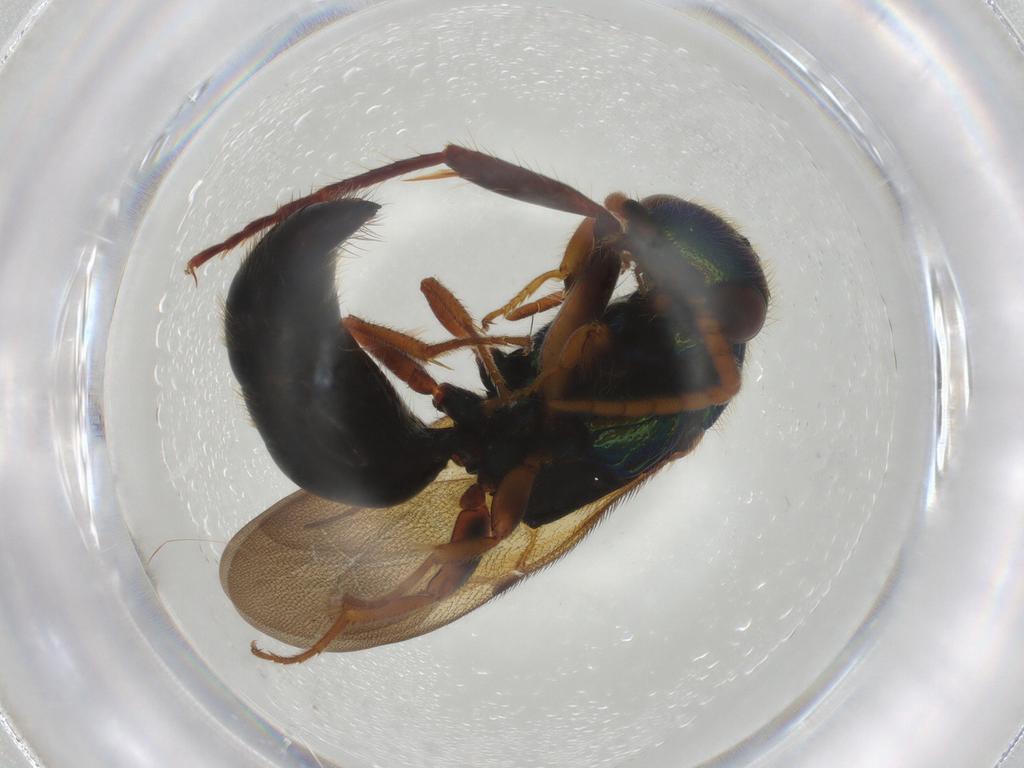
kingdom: Animalia
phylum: Arthropoda
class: Insecta
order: Hymenoptera
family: Bethylidae
